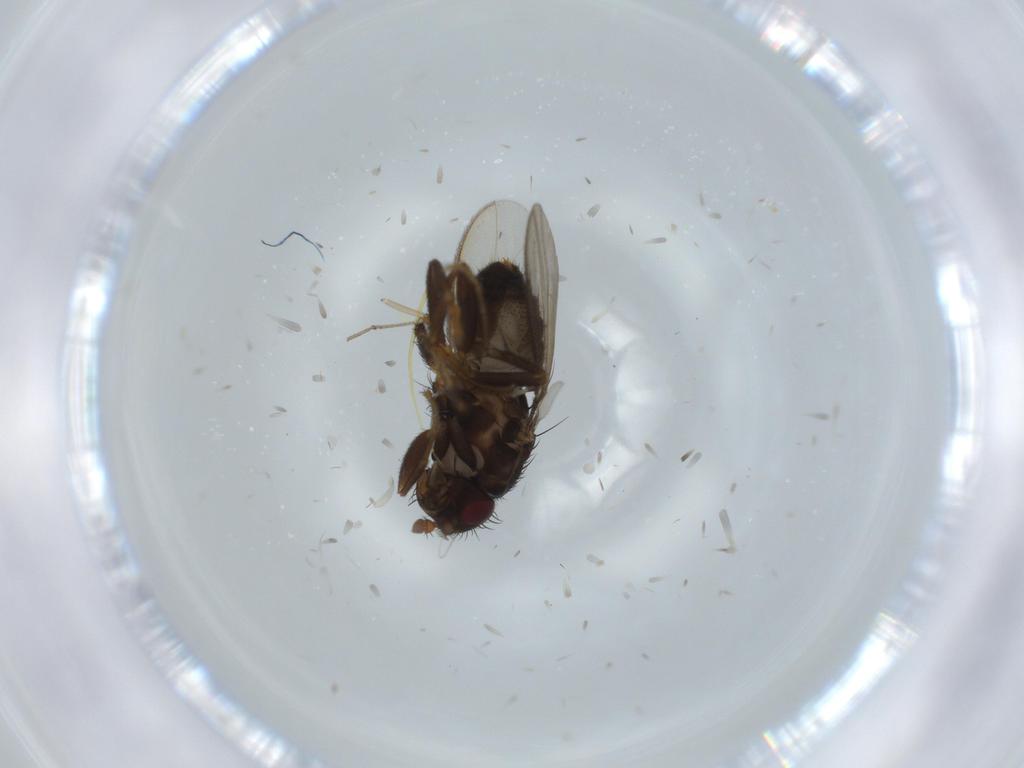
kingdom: Animalia
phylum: Arthropoda
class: Insecta
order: Diptera
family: Sphaeroceridae
